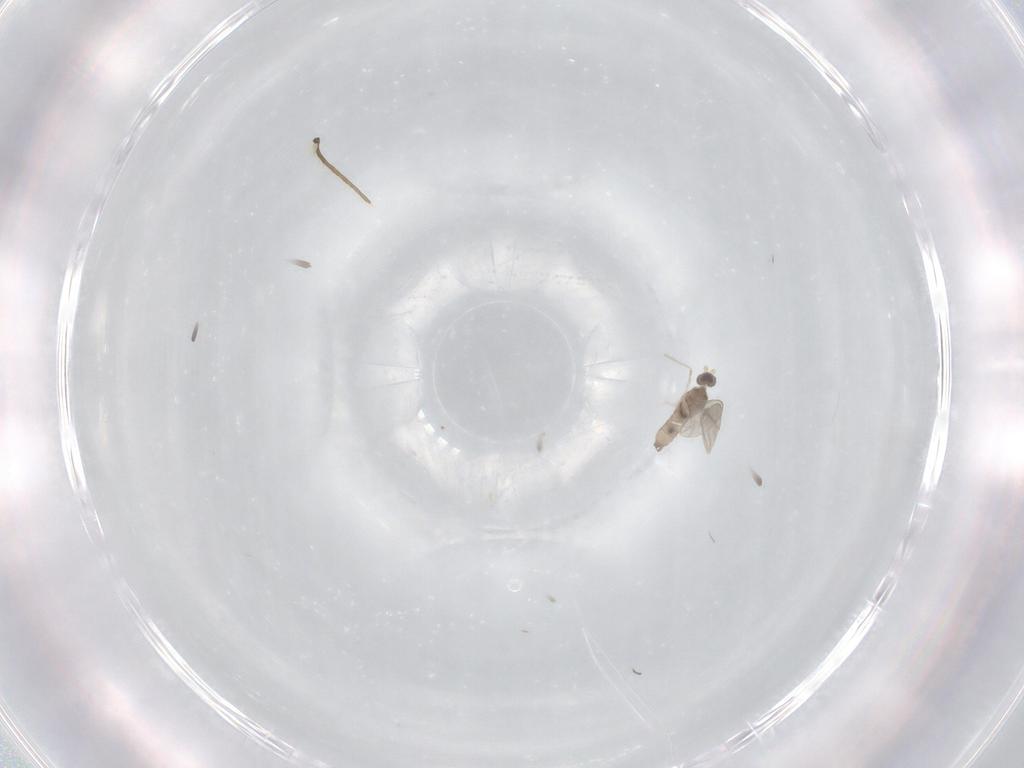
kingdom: Animalia
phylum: Arthropoda
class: Insecta
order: Diptera
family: Cecidomyiidae
